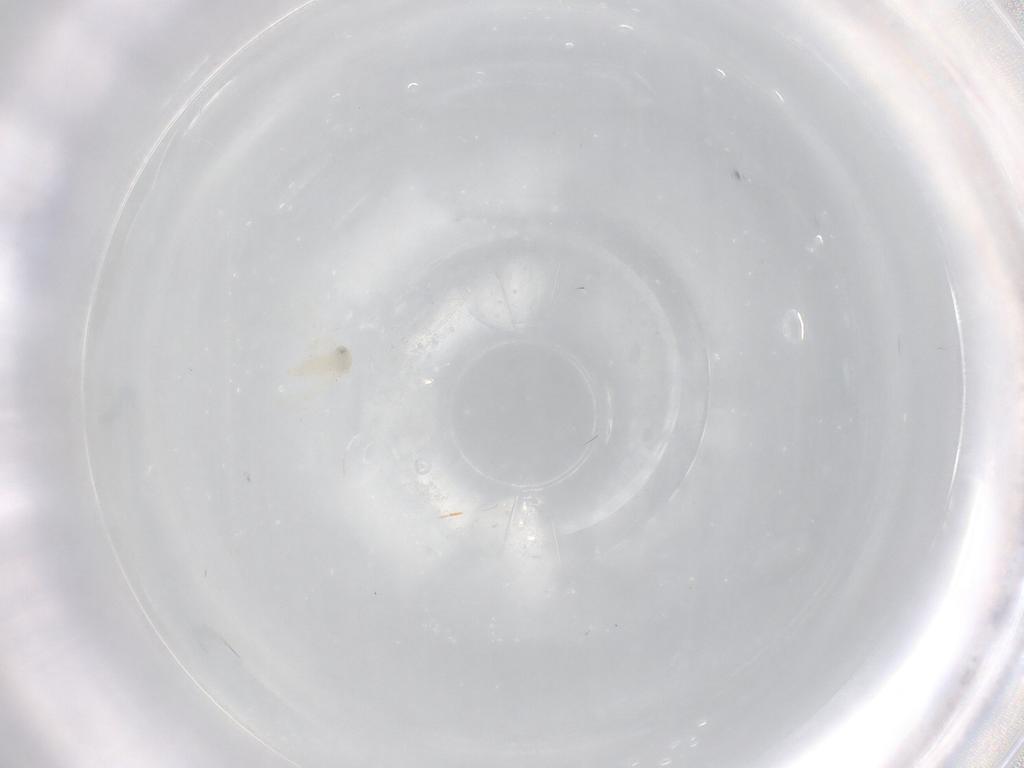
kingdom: Animalia
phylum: Arthropoda
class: Insecta
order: Hemiptera
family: Aleyrodidae
